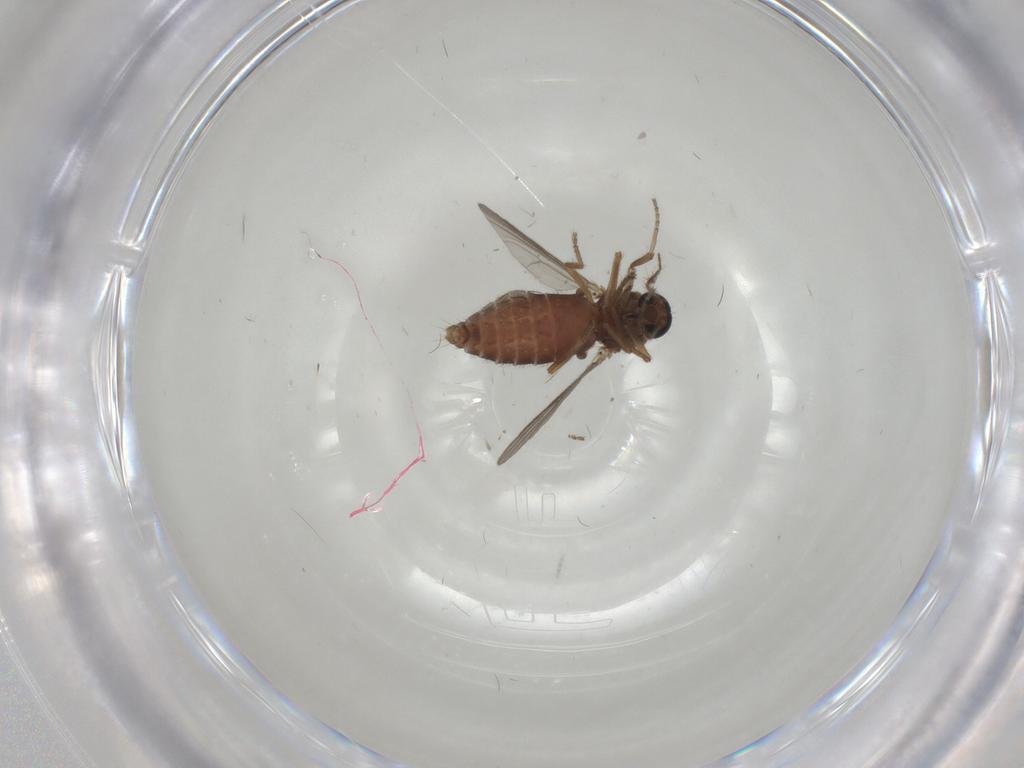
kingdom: Animalia
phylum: Arthropoda
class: Insecta
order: Diptera
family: Ceratopogonidae
